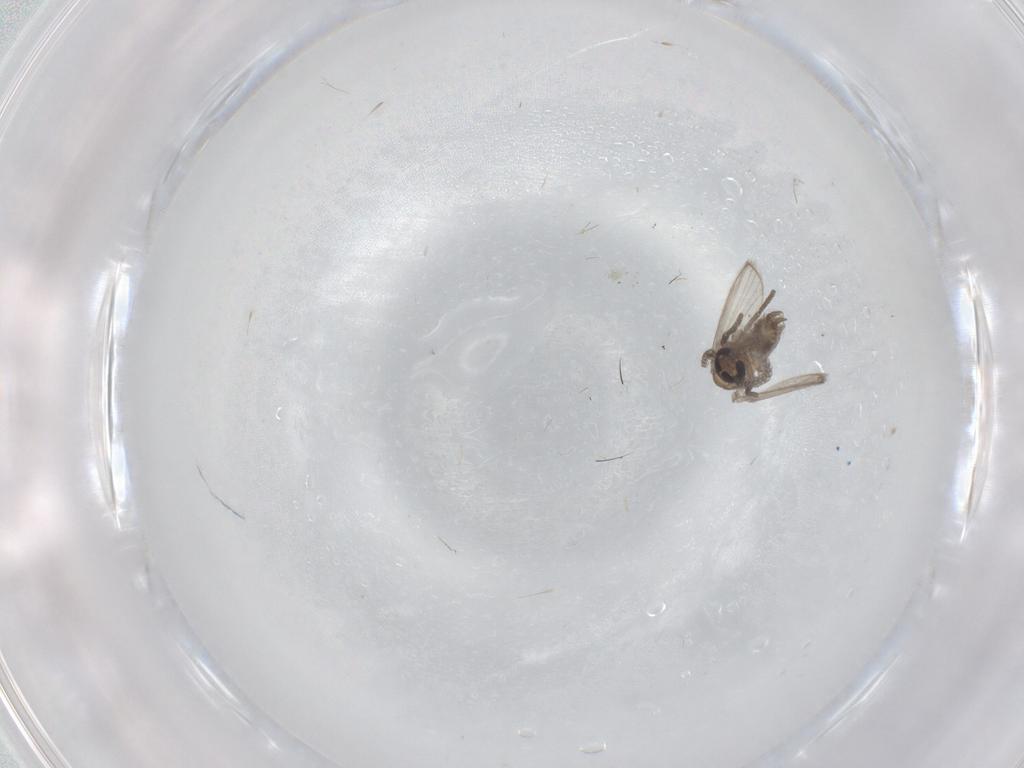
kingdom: Animalia
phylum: Arthropoda
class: Insecta
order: Diptera
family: Psychodidae
